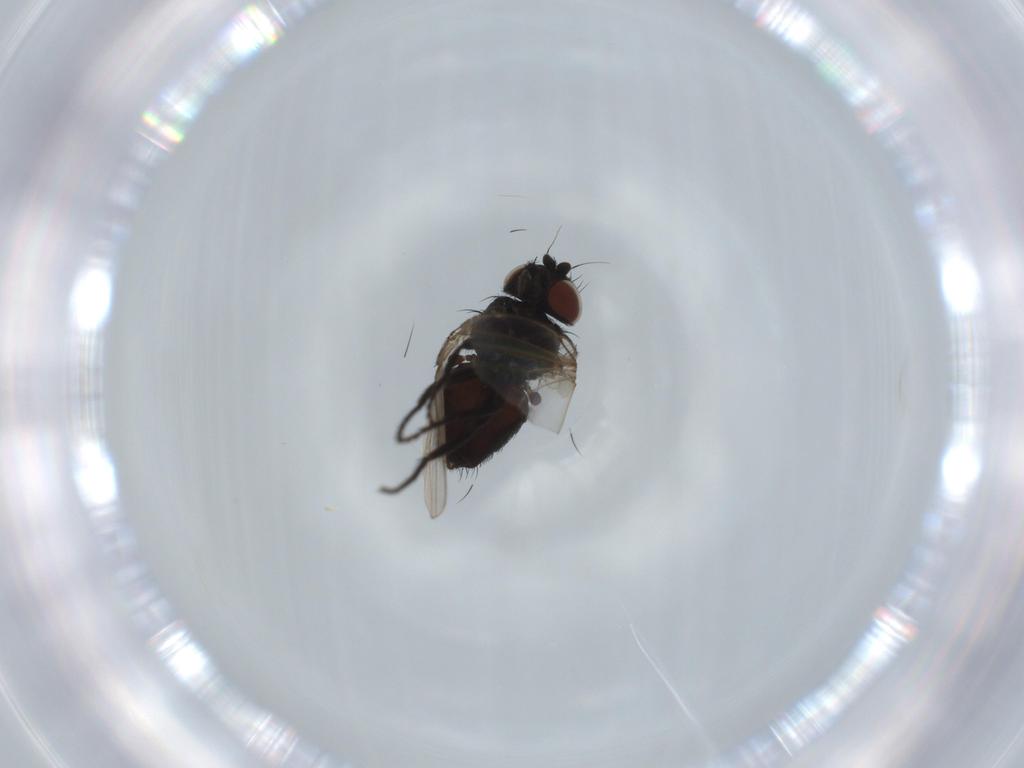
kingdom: Animalia
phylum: Arthropoda
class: Insecta
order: Diptera
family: Milichiidae
